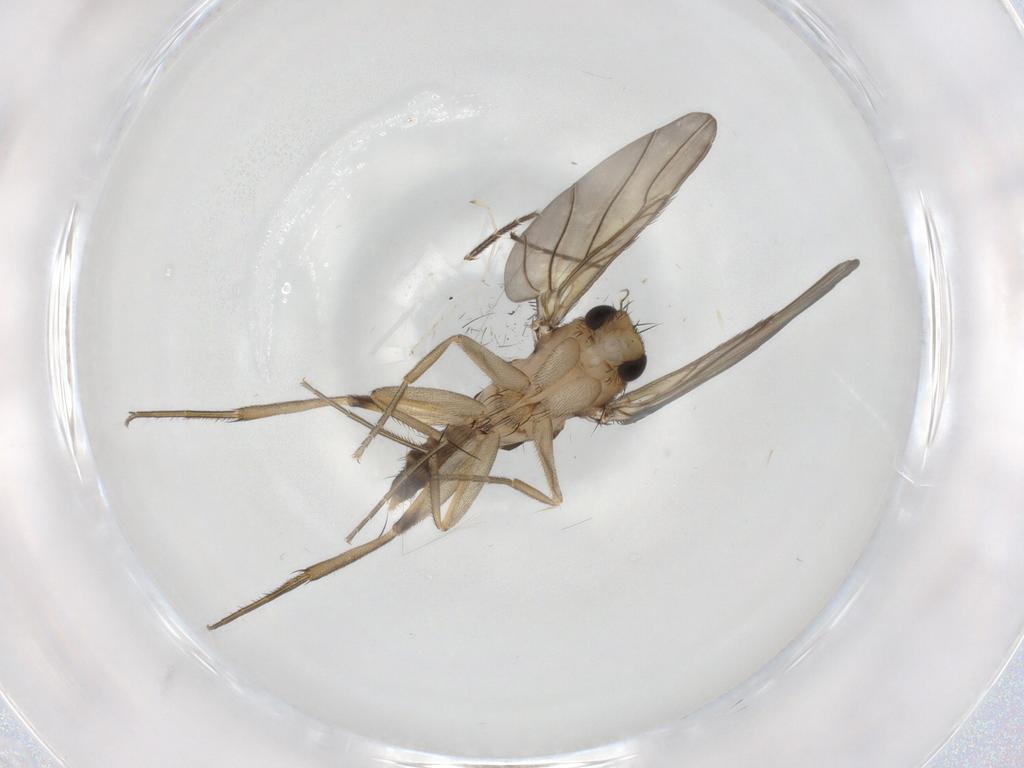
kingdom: Animalia
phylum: Arthropoda
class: Insecta
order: Diptera
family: Phoridae
